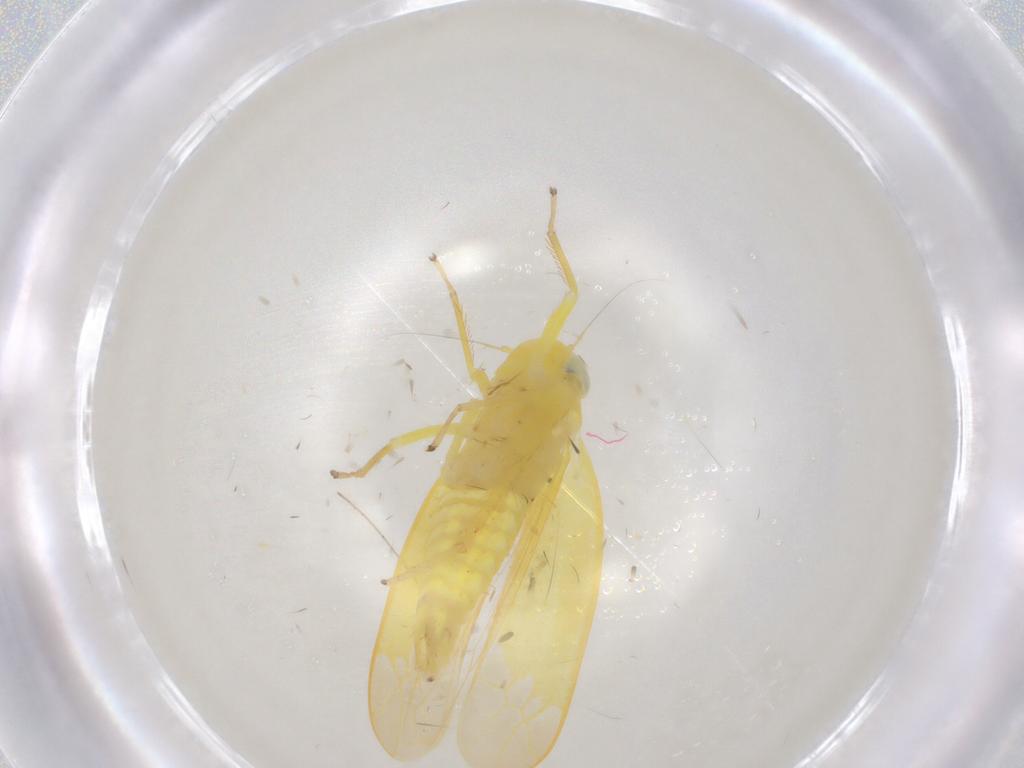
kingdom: Animalia
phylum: Arthropoda
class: Insecta
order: Hemiptera
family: Cicadellidae
